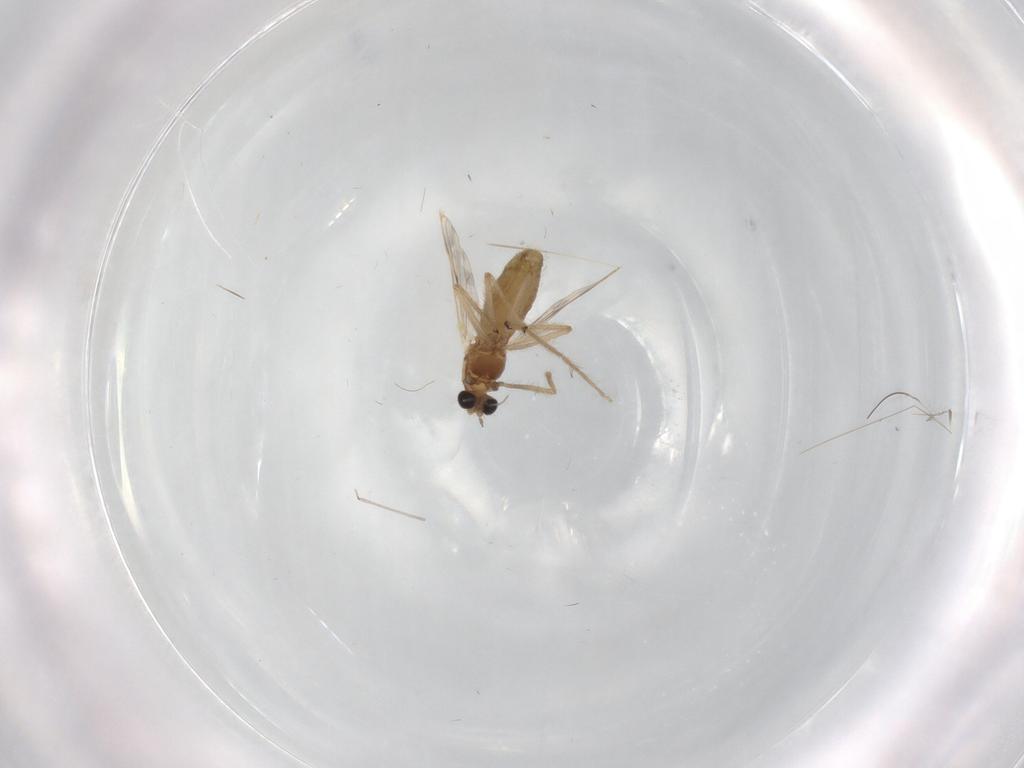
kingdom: Animalia
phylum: Arthropoda
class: Insecta
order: Diptera
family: Chironomidae
